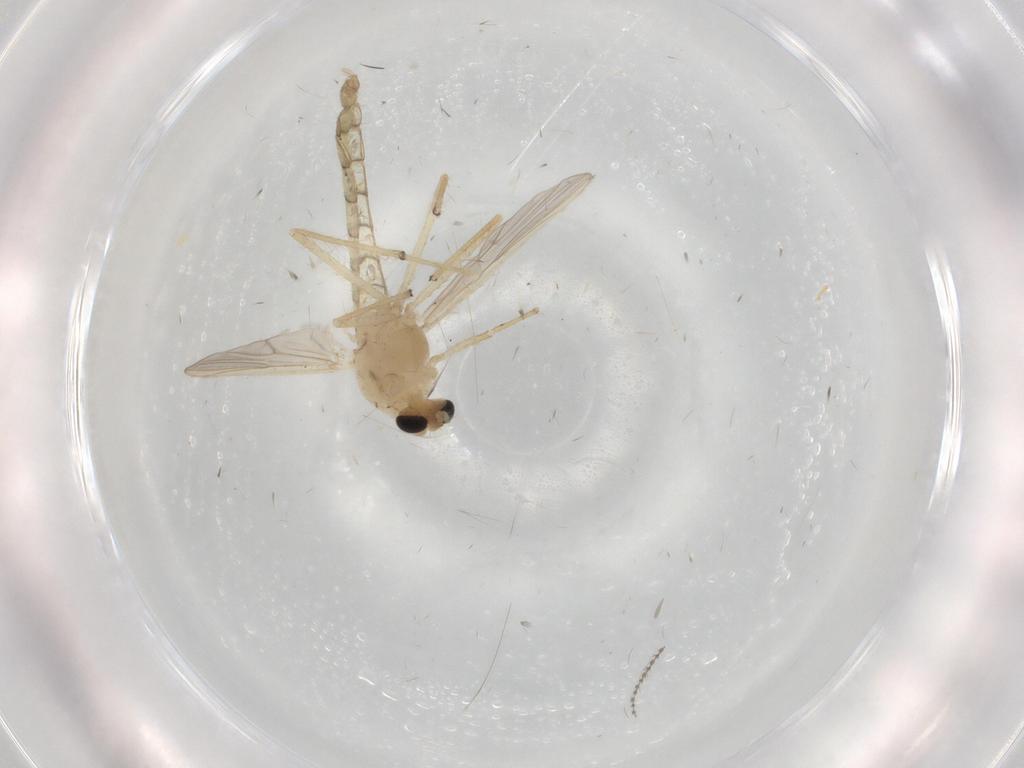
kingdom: Animalia
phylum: Arthropoda
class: Insecta
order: Diptera
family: Chironomidae
